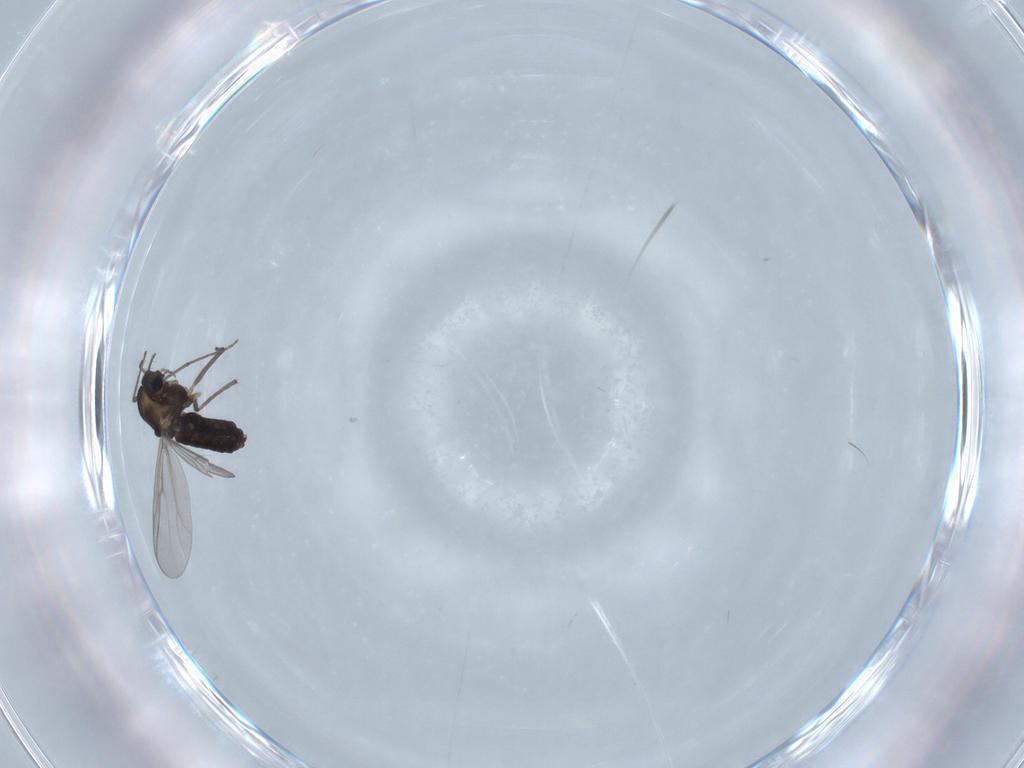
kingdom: Animalia
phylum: Arthropoda
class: Insecta
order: Diptera
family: Chironomidae
